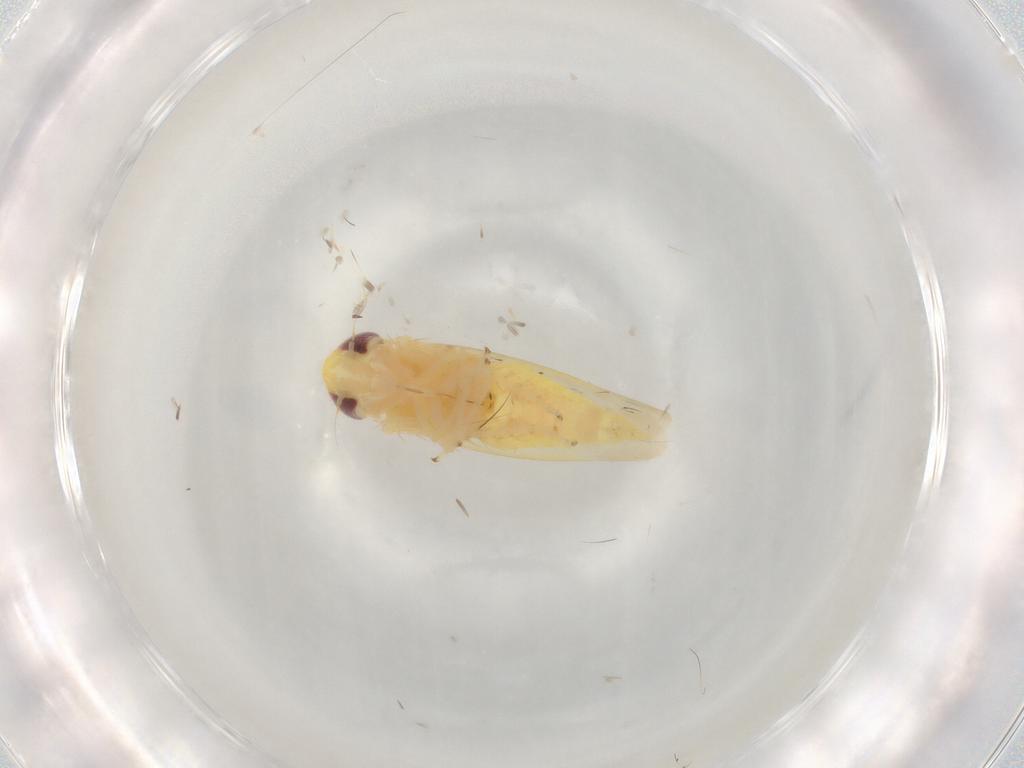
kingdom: Animalia
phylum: Arthropoda
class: Insecta
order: Hemiptera
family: Cicadellidae
